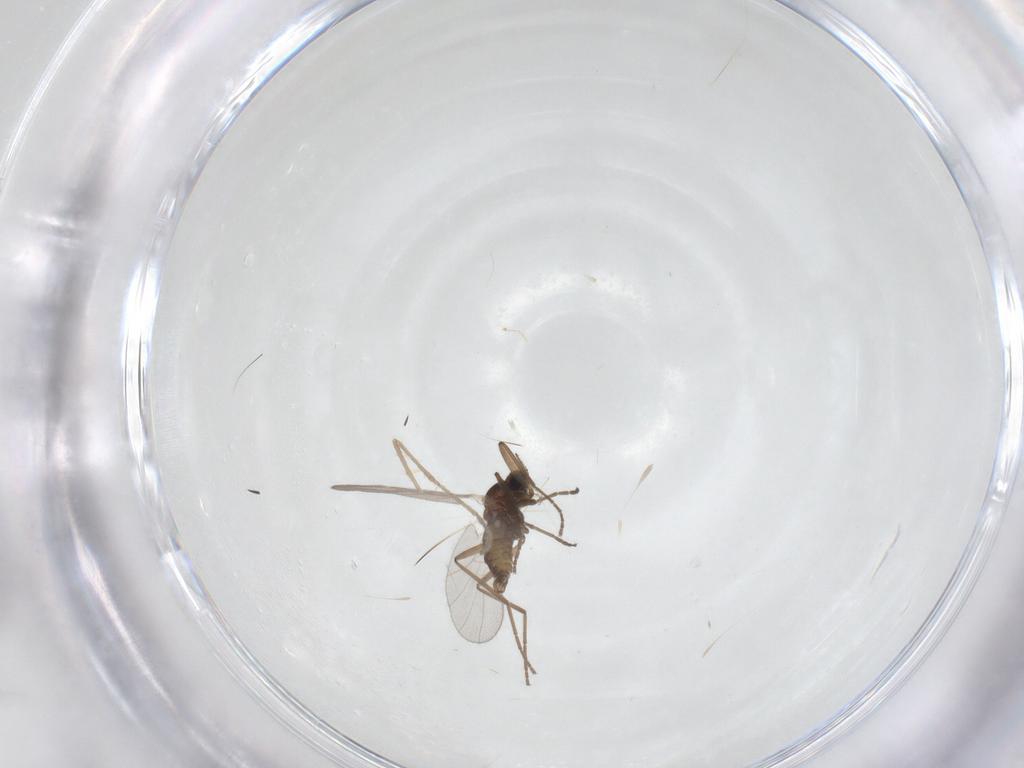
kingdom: Animalia
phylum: Arthropoda
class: Insecta
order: Diptera
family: Cecidomyiidae
